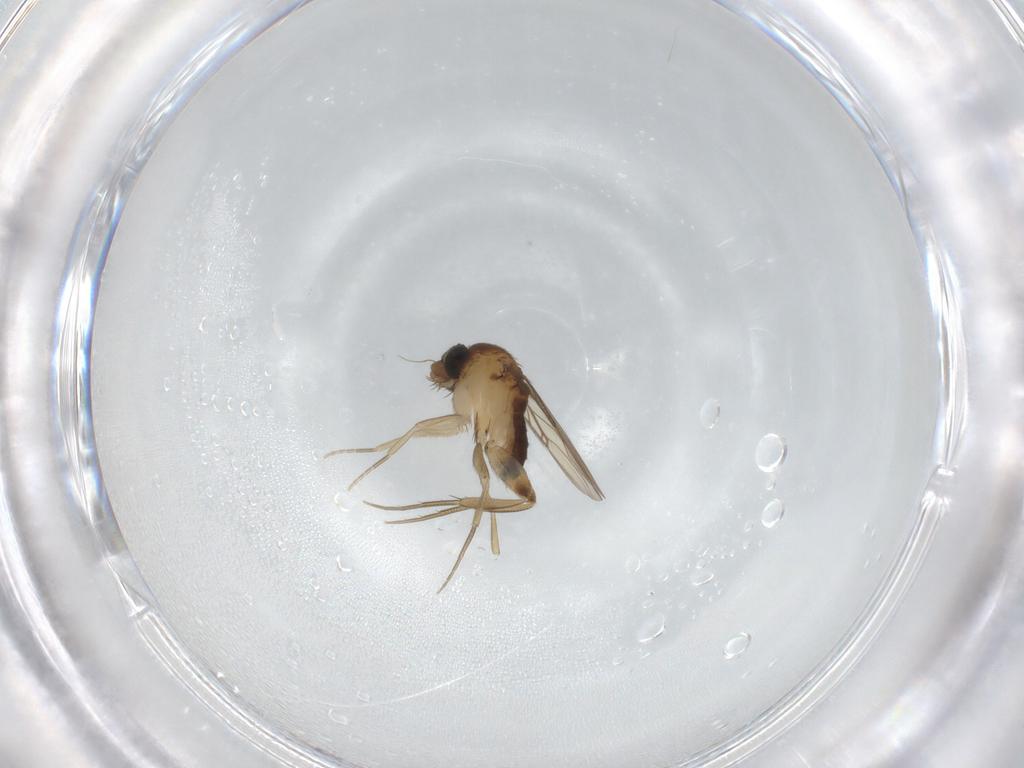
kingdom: Animalia
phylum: Arthropoda
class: Insecta
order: Diptera
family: Phoridae
